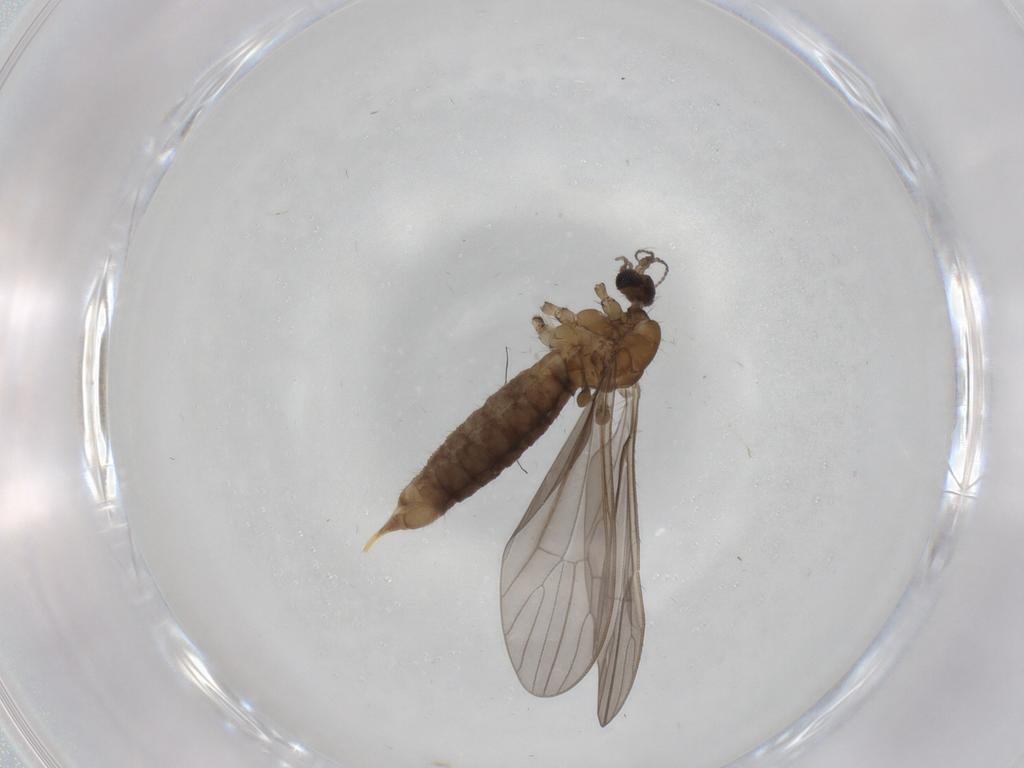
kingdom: Animalia
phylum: Arthropoda
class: Insecta
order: Diptera
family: Limoniidae
